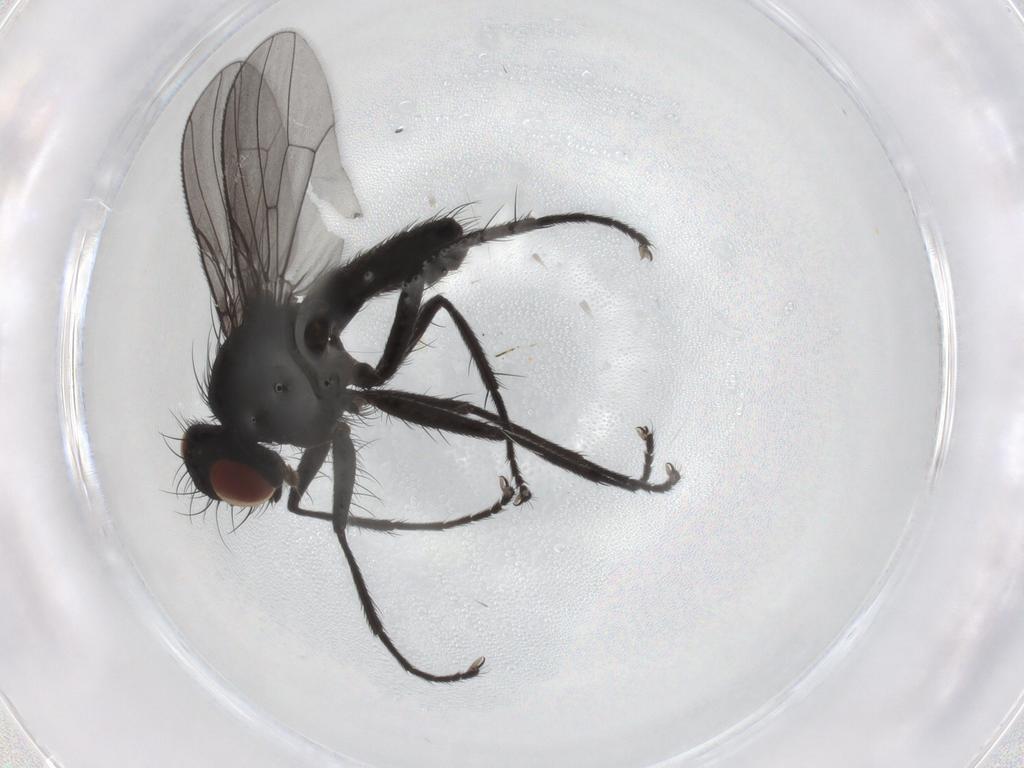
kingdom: Animalia
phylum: Arthropoda
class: Insecta
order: Diptera
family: Muscidae
